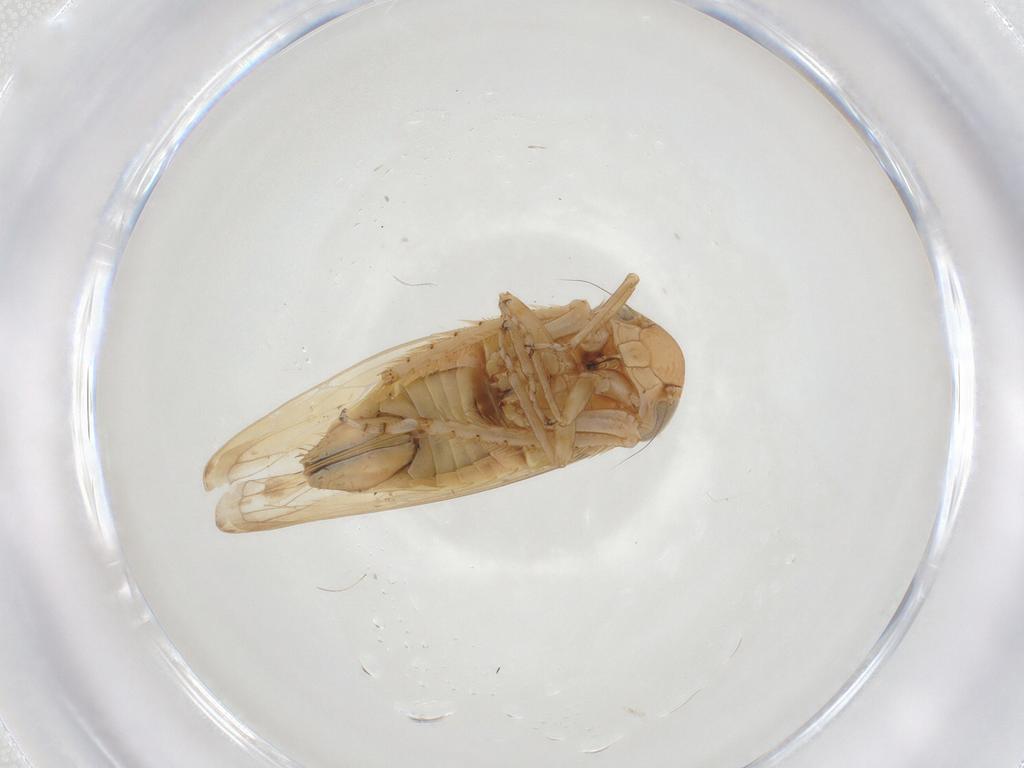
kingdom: Animalia
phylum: Arthropoda
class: Insecta
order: Hemiptera
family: Cicadellidae
